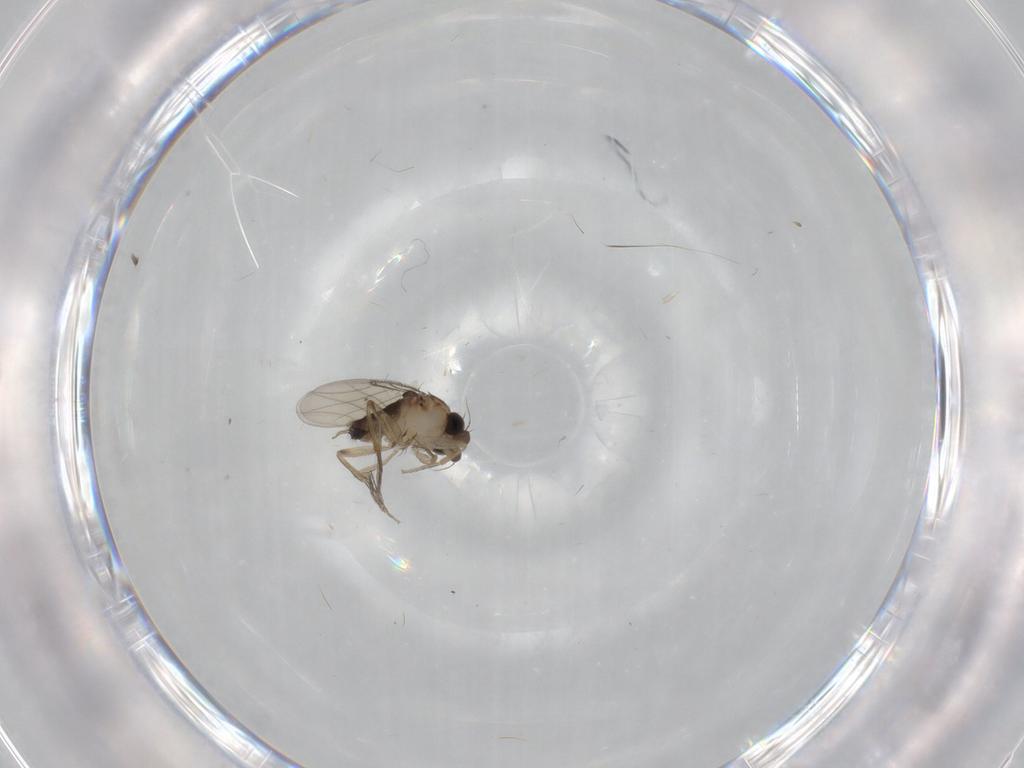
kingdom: Animalia
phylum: Arthropoda
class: Insecta
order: Diptera
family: Phoridae
